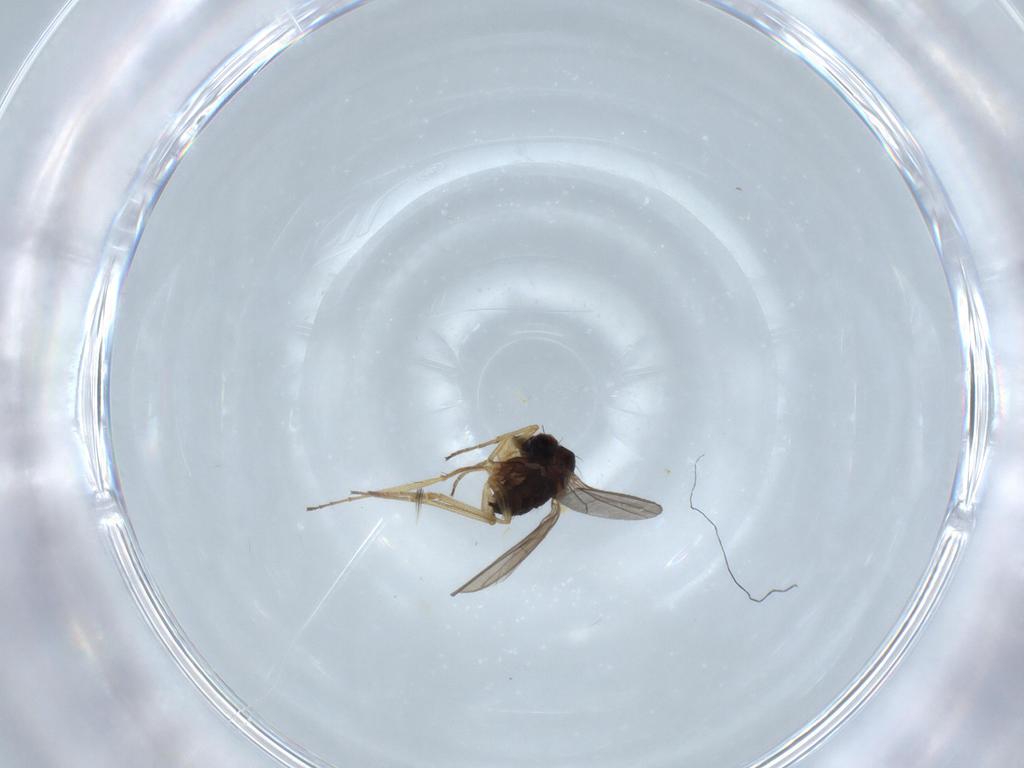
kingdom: Animalia
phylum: Arthropoda
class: Insecta
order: Diptera
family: Dolichopodidae
